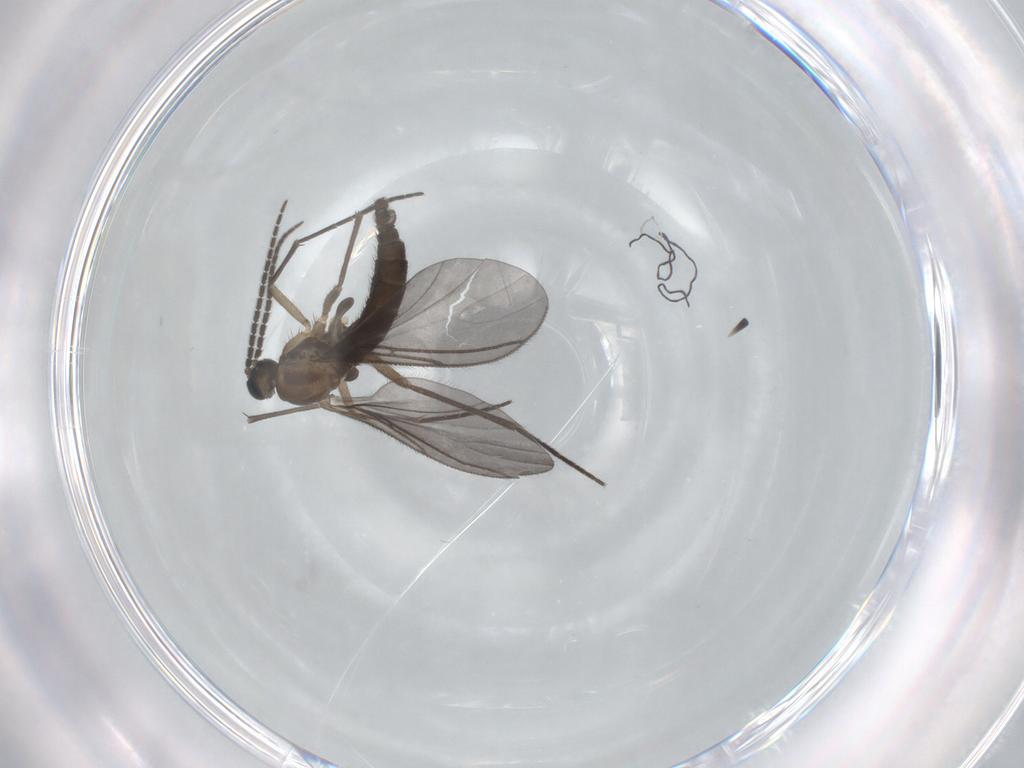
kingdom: Animalia
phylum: Arthropoda
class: Insecta
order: Diptera
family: Sciaridae
